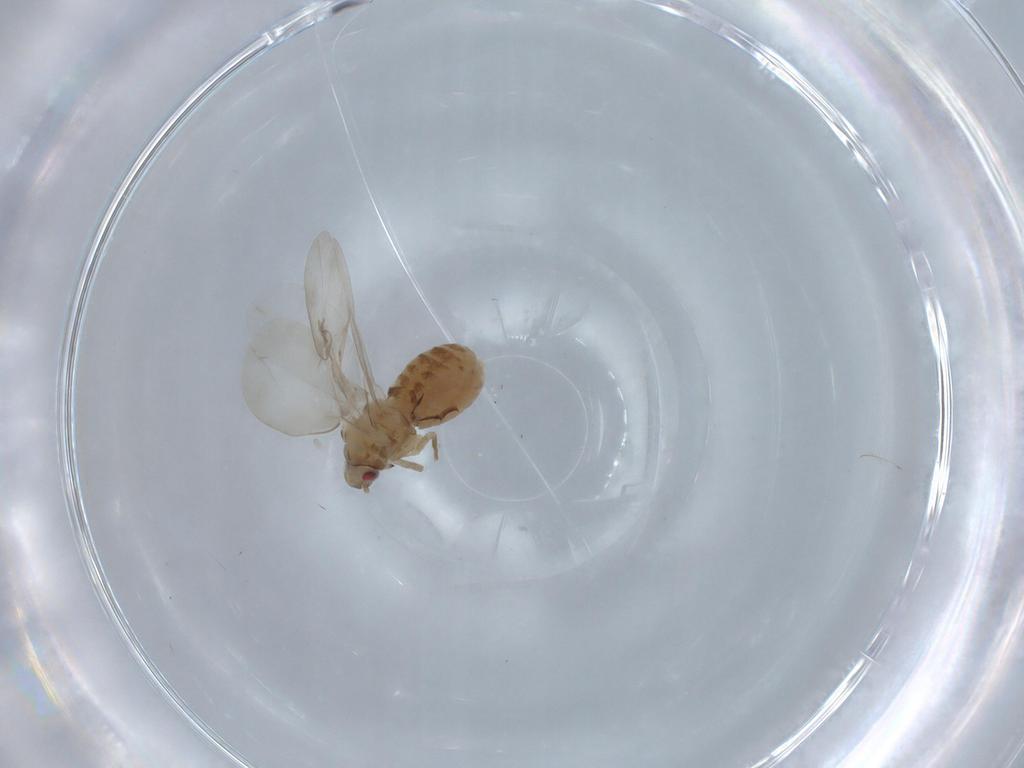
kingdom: Animalia
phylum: Arthropoda
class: Insecta
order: Hemiptera
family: Aleyrodidae
